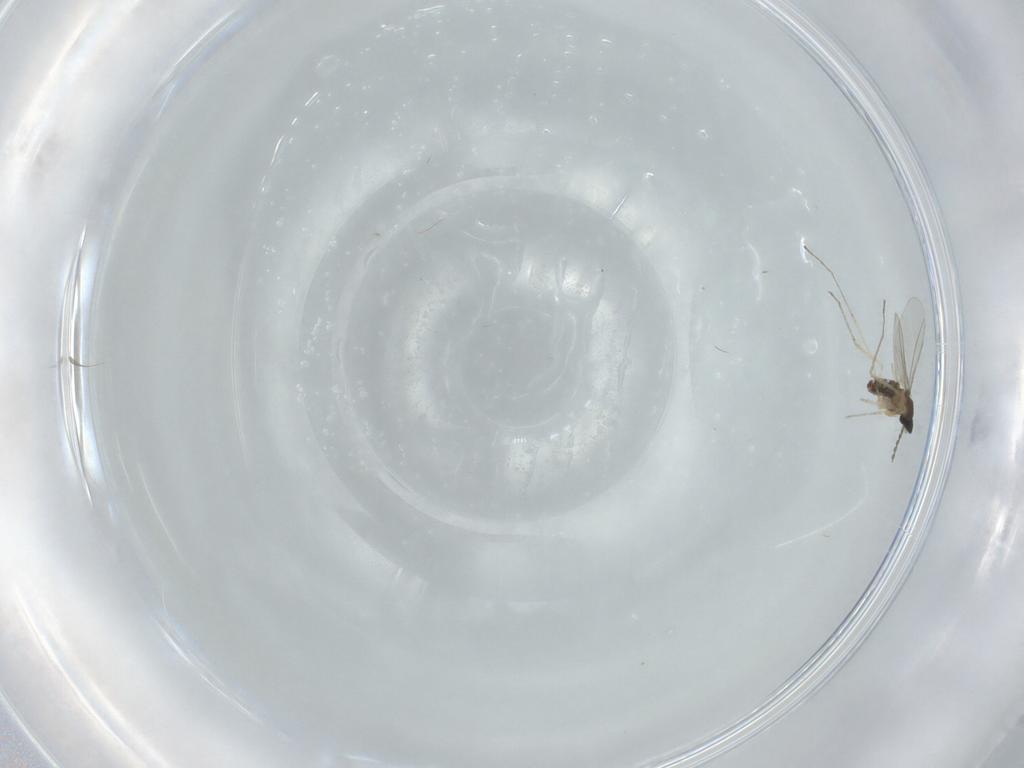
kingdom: Animalia
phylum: Arthropoda
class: Insecta
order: Diptera
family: Cecidomyiidae
